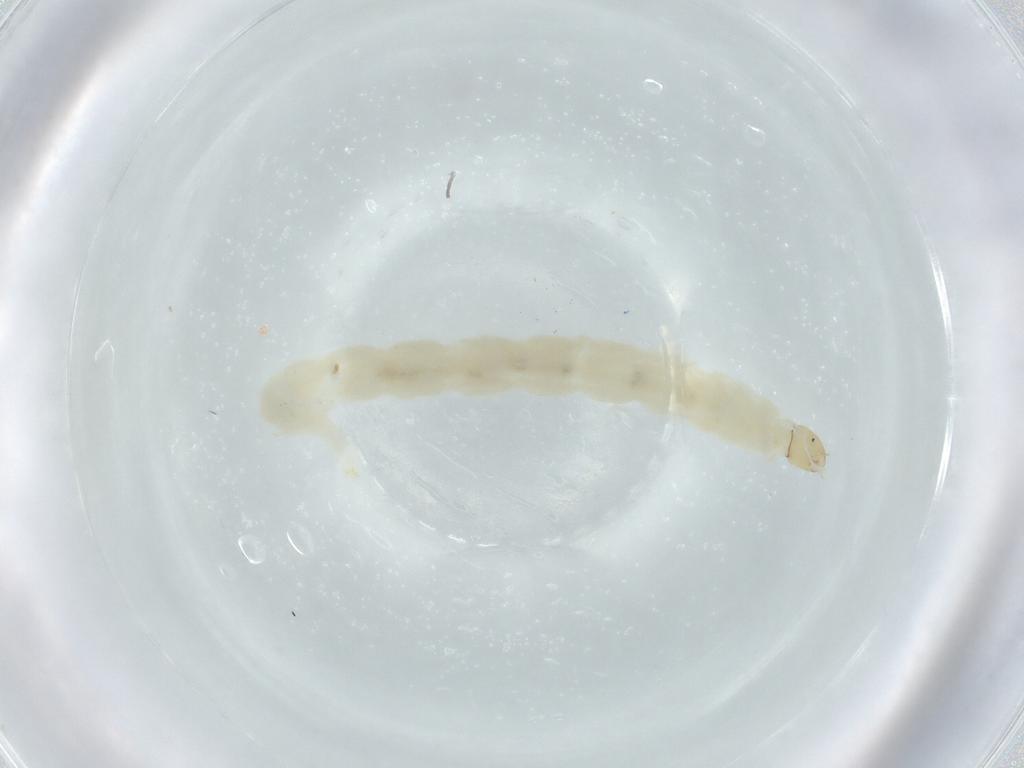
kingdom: Animalia
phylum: Arthropoda
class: Insecta
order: Diptera
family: Chironomidae
